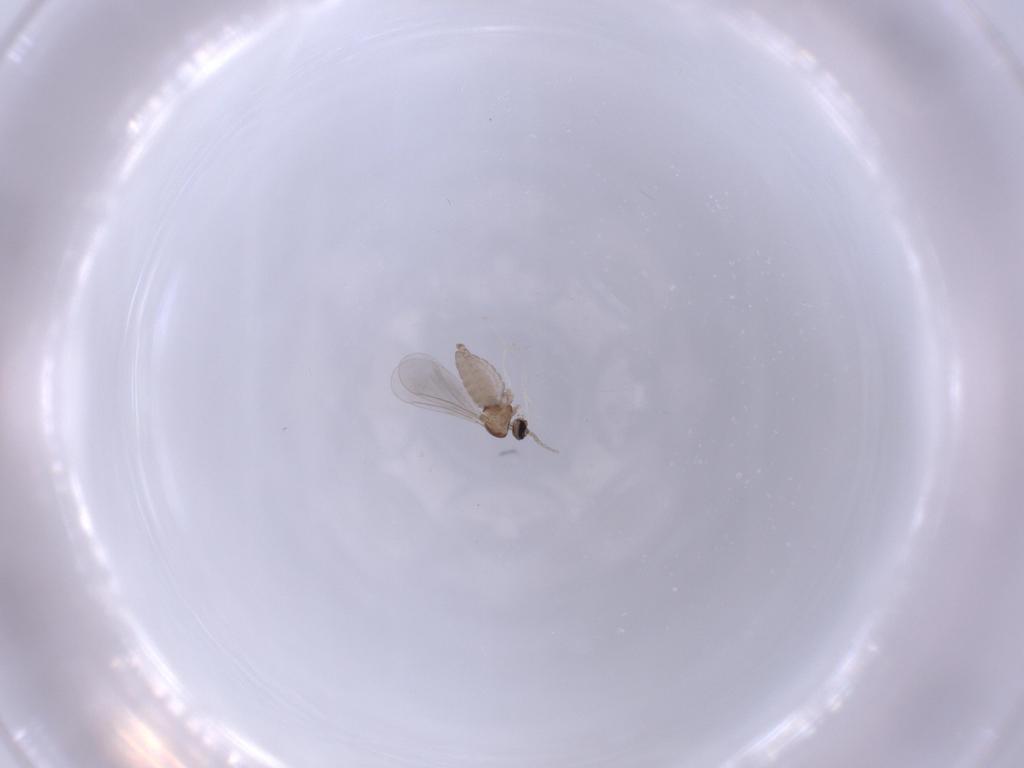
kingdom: Animalia
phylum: Arthropoda
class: Insecta
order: Diptera
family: Cecidomyiidae
